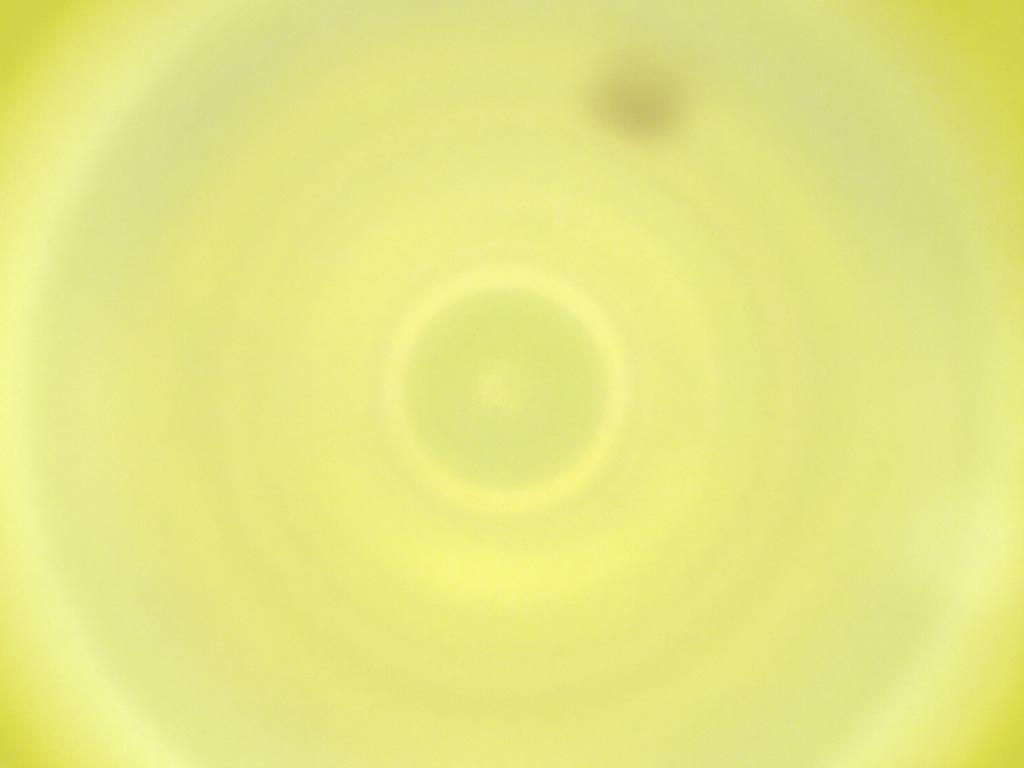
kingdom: Animalia
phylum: Arthropoda
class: Insecta
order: Diptera
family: Cecidomyiidae
